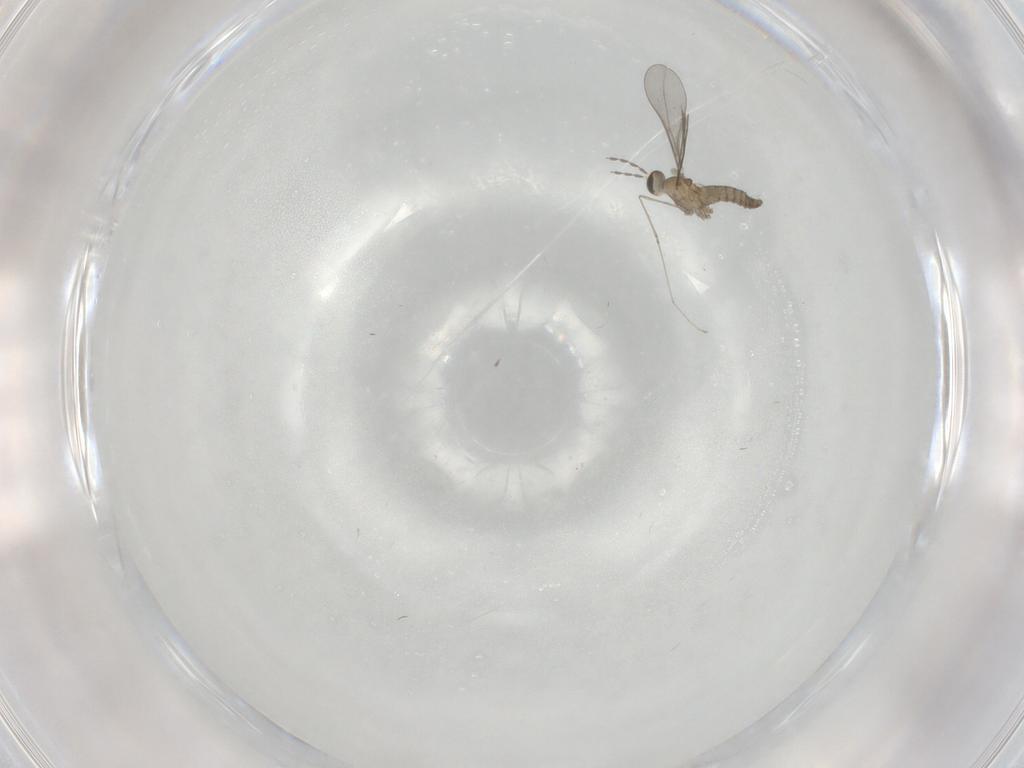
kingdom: Animalia
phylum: Arthropoda
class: Insecta
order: Diptera
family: Cecidomyiidae
